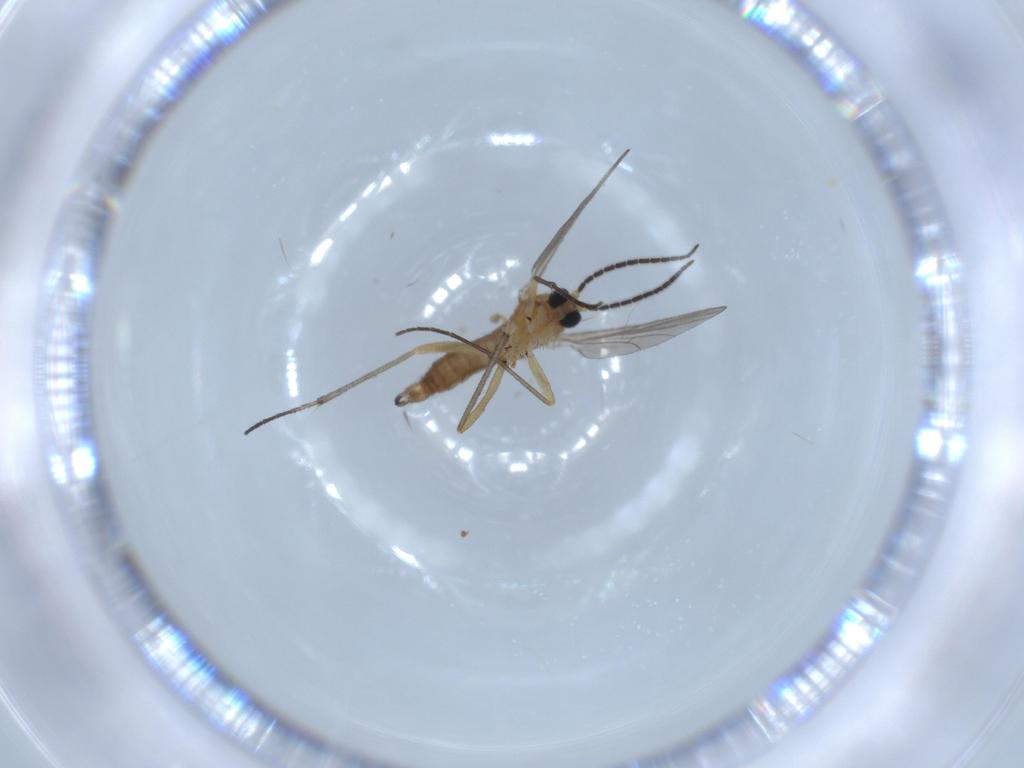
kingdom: Animalia
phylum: Arthropoda
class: Insecta
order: Diptera
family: Sciaridae
